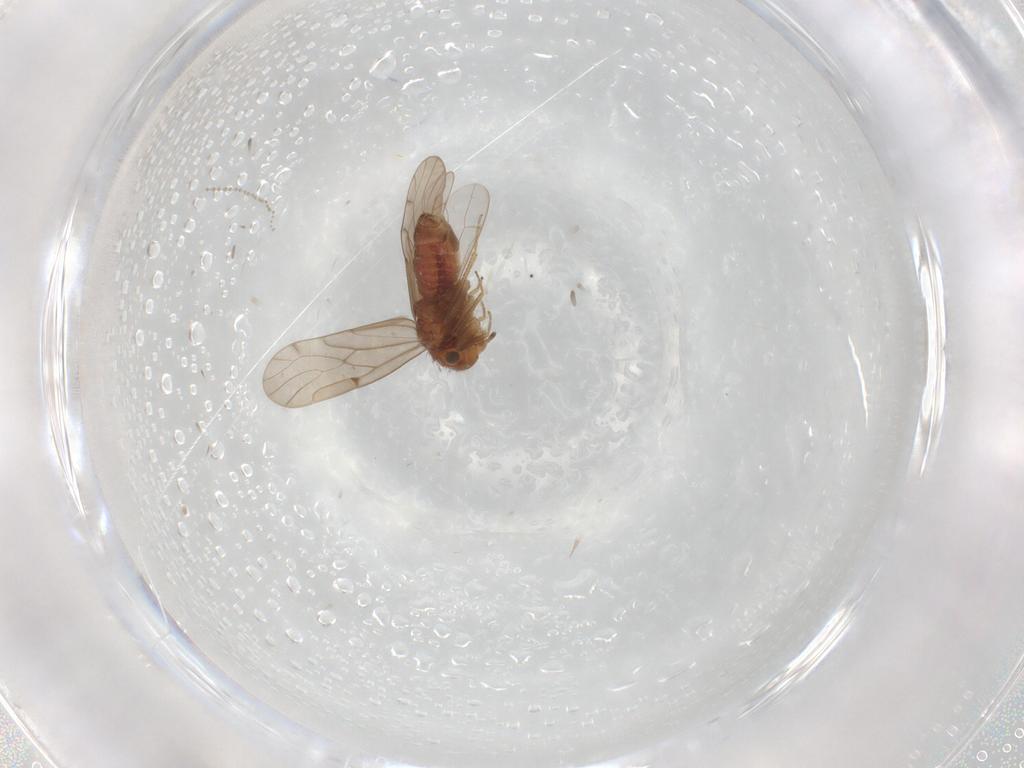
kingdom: Animalia
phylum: Arthropoda
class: Insecta
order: Psocodea
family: Ectopsocidae
